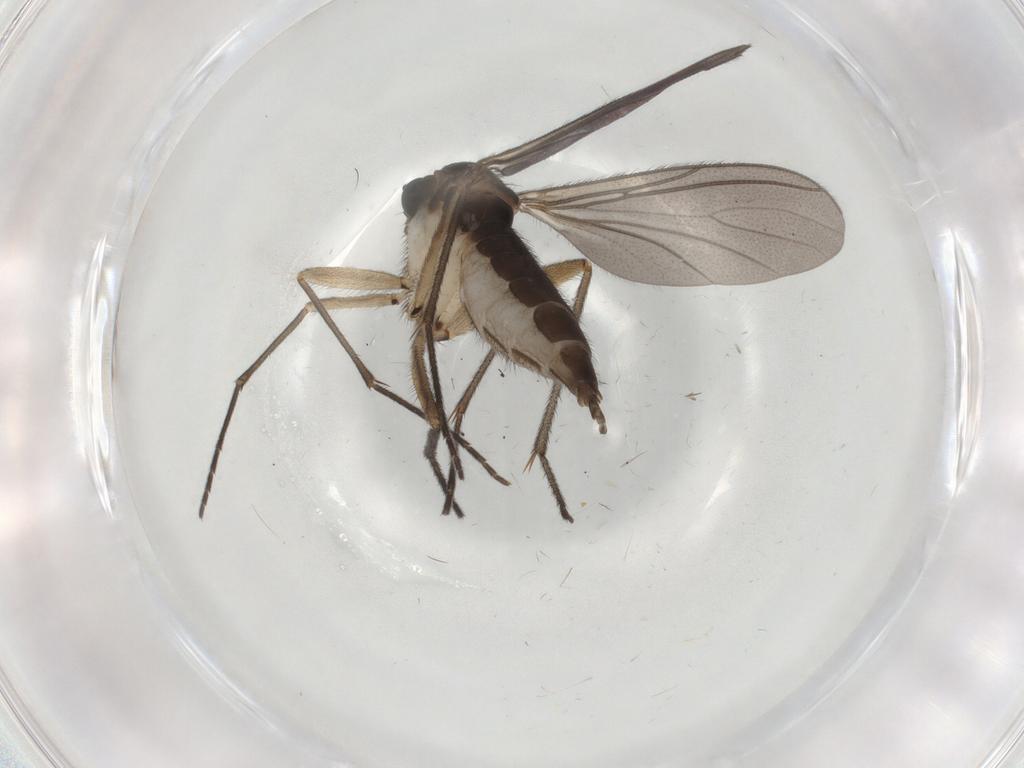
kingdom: Animalia
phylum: Arthropoda
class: Insecta
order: Diptera
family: Sciaridae
